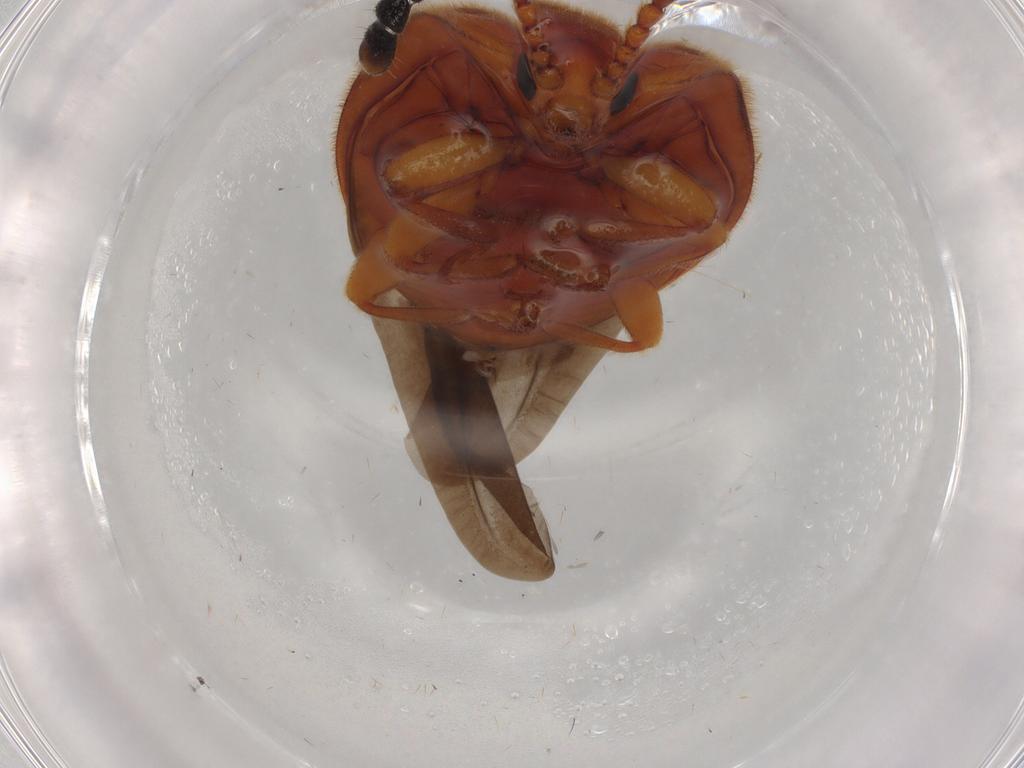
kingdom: Animalia
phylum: Arthropoda
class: Insecta
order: Coleoptera
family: Endomychidae
